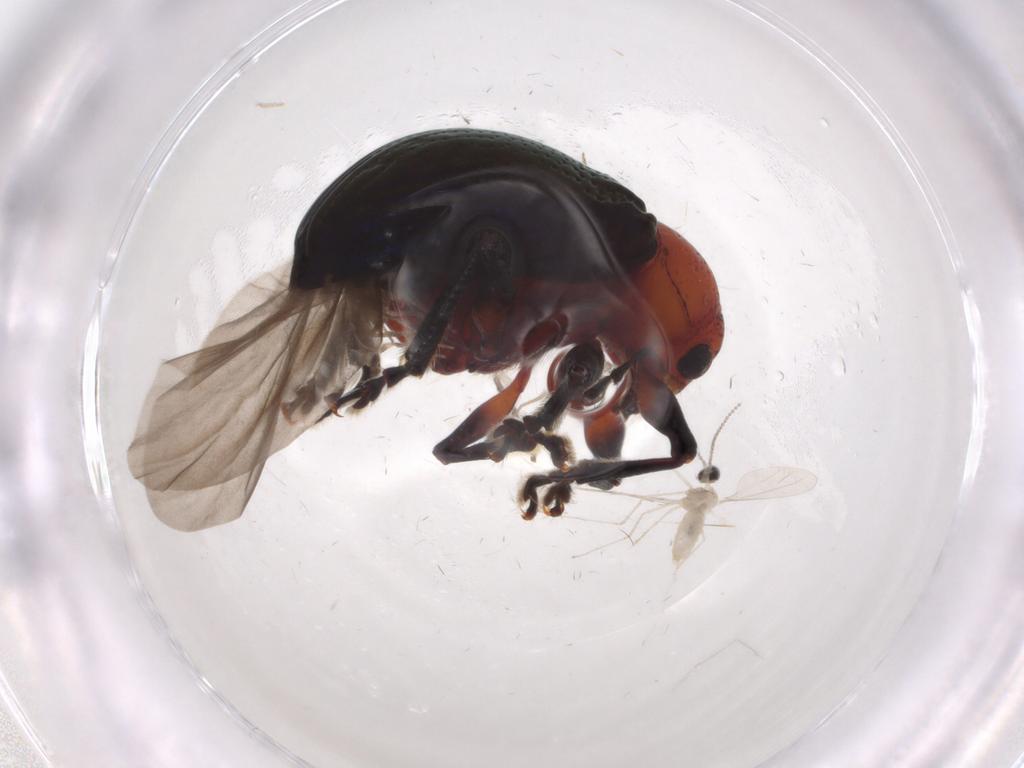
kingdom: Animalia
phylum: Arthropoda
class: Insecta
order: Coleoptera
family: Chrysomelidae
